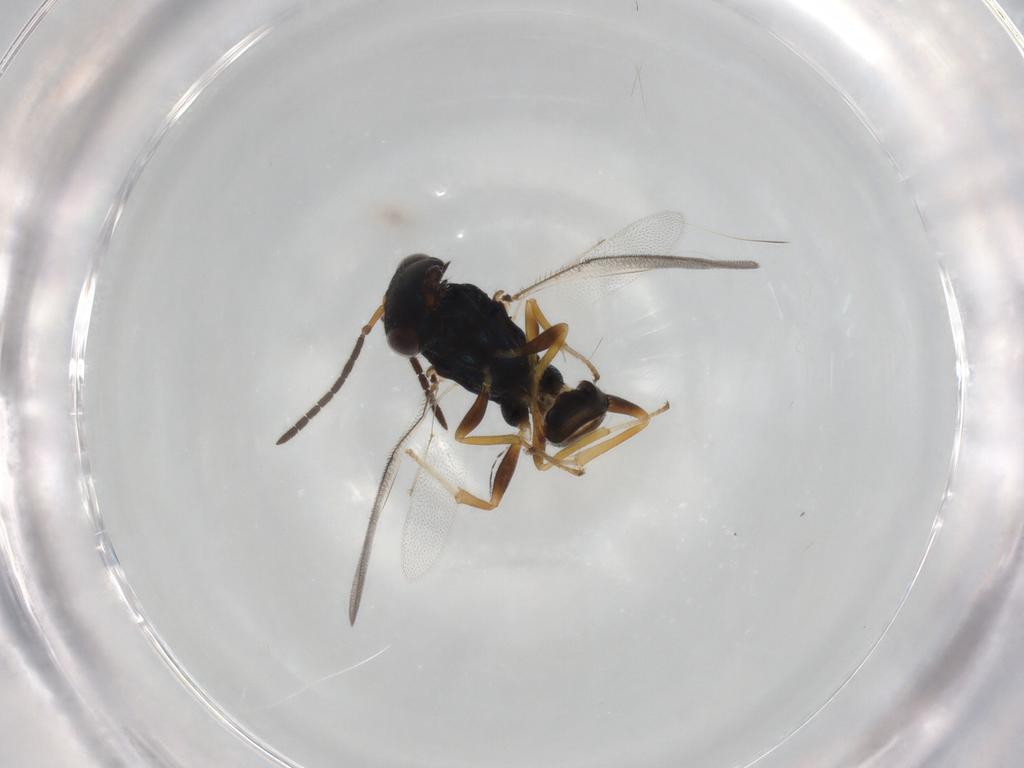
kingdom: Animalia
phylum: Arthropoda
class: Insecta
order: Hymenoptera
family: Encyrtidae
